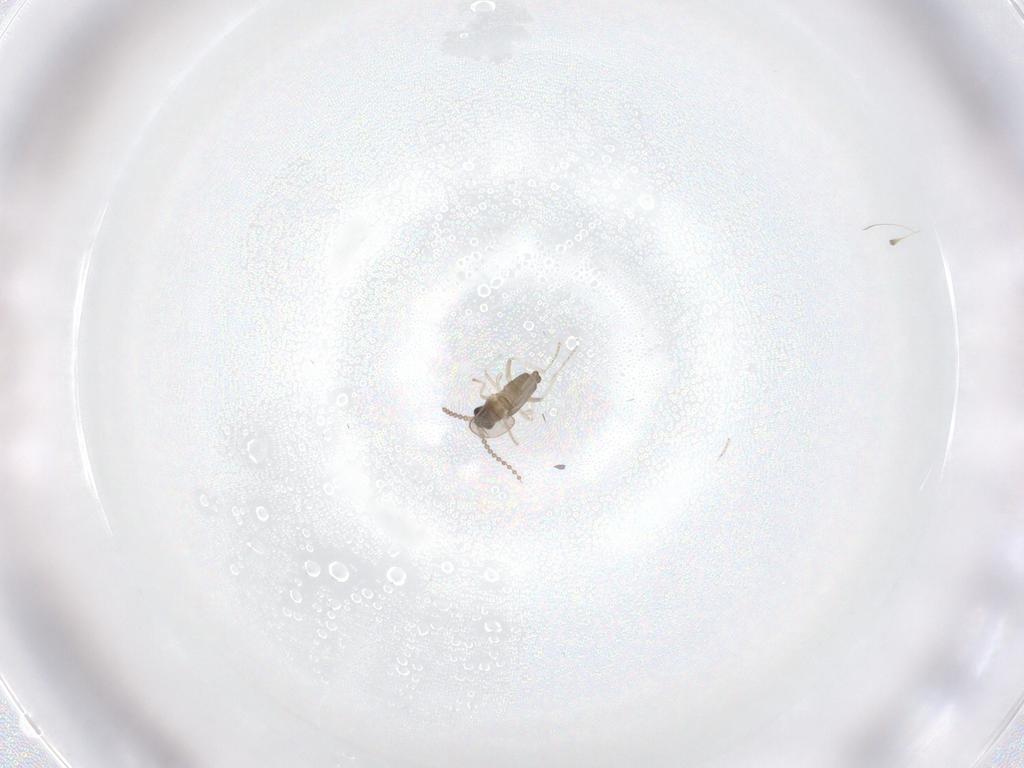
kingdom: Animalia
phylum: Arthropoda
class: Insecta
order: Diptera
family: Cecidomyiidae
